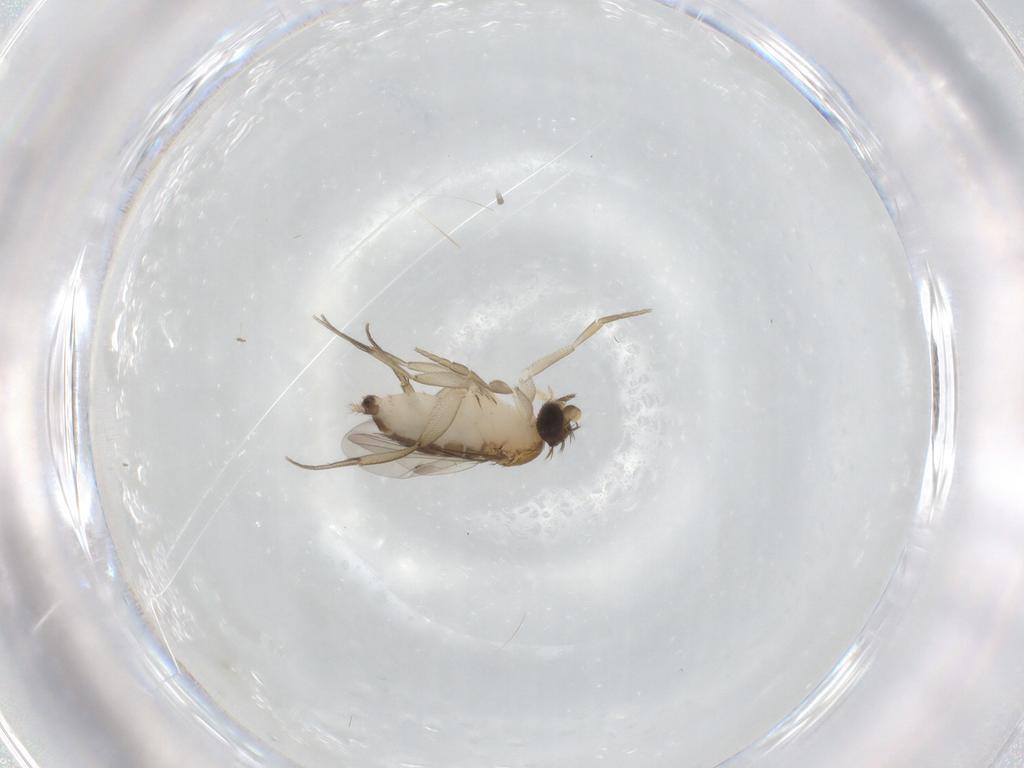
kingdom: Animalia
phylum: Arthropoda
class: Insecta
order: Diptera
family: Phoridae
